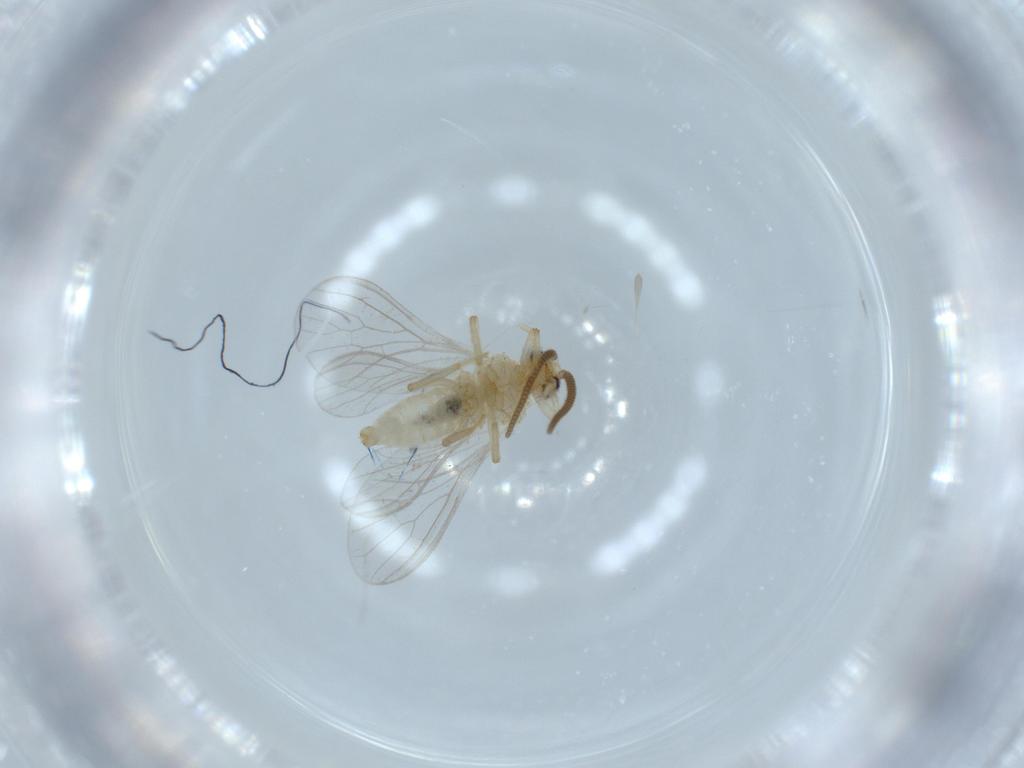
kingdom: Animalia
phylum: Arthropoda
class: Insecta
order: Neuroptera
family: Coniopterygidae
